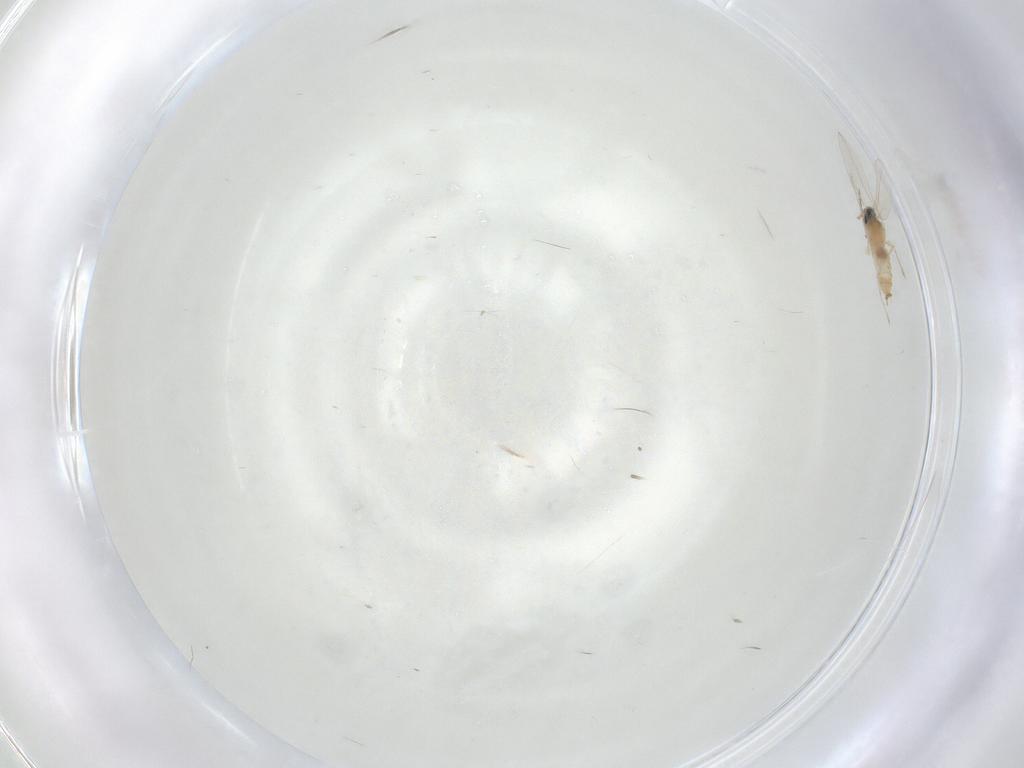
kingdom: Animalia
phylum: Arthropoda
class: Insecta
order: Diptera
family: Cecidomyiidae
